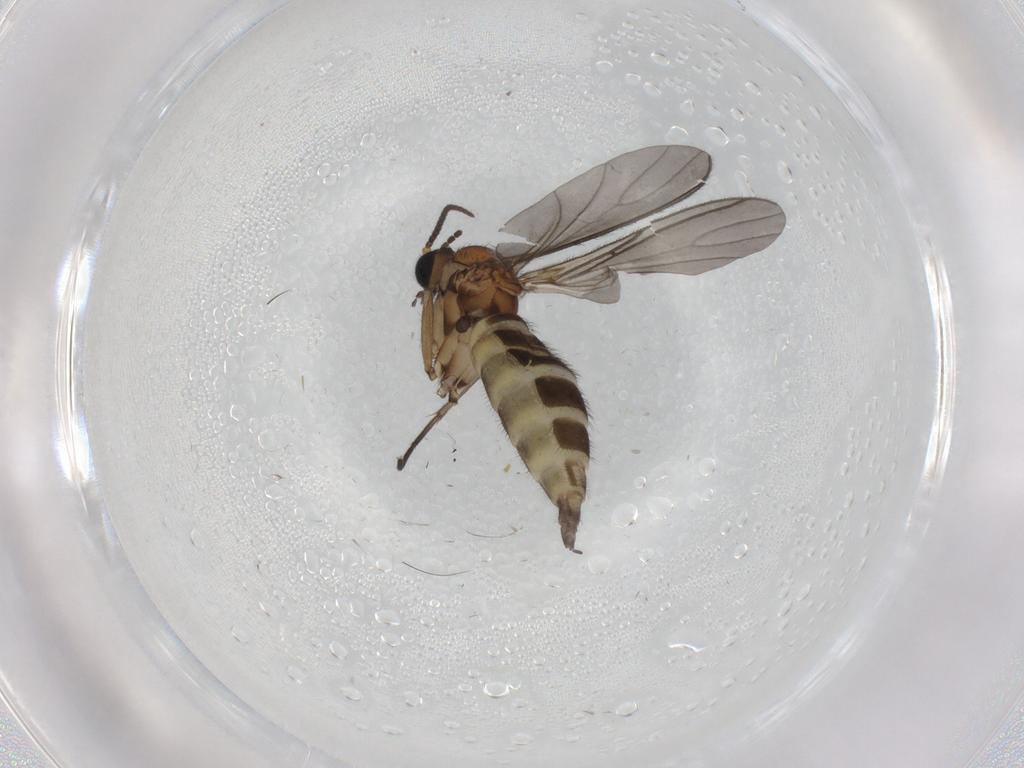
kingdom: Animalia
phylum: Arthropoda
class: Insecta
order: Diptera
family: Sciaridae
